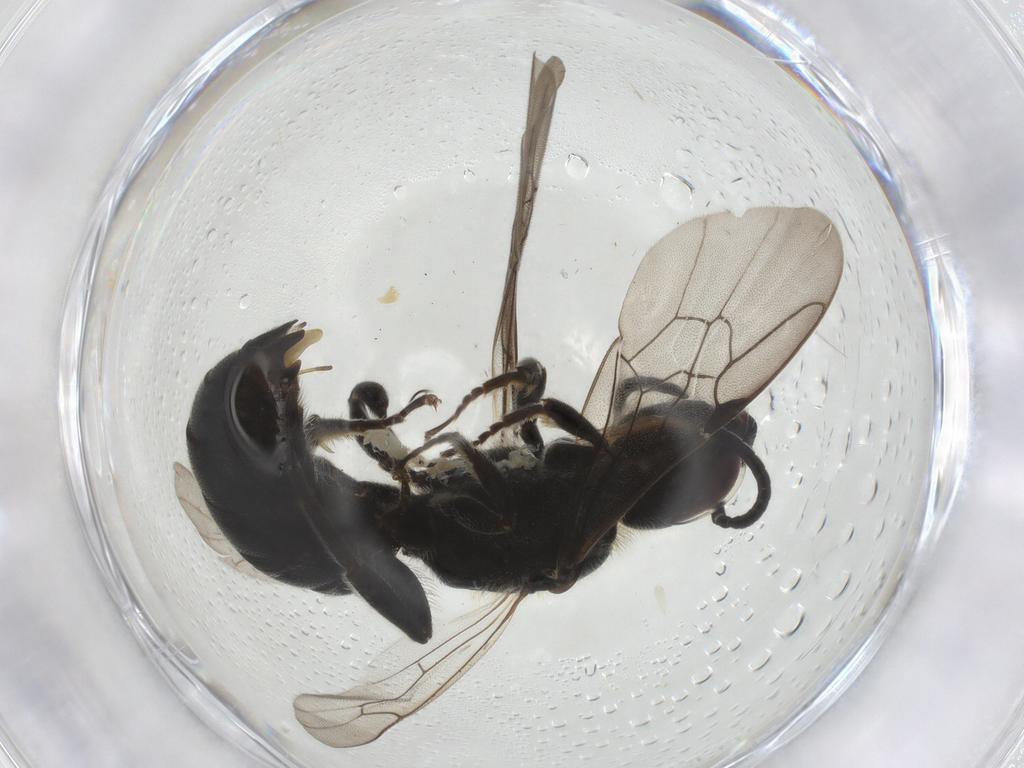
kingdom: Animalia
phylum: Arthropoda
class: Insecta
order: Hymenoptera
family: Megachilidae
